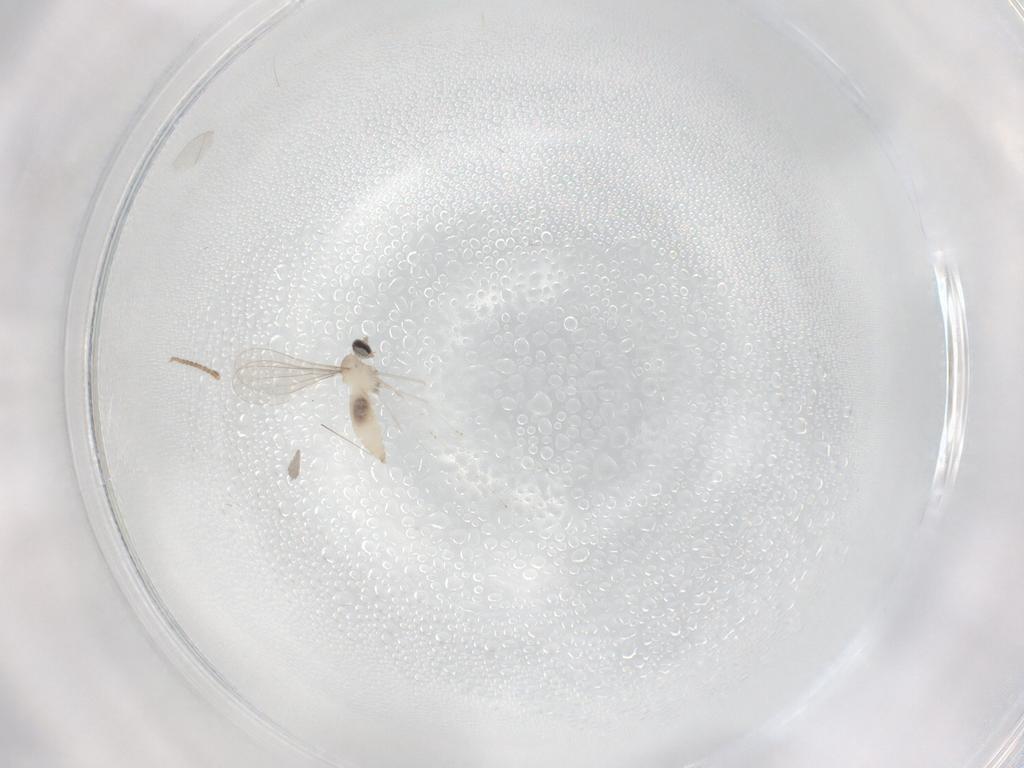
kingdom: Animalia
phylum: Arthropoda
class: Insecta
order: Diptera
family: Cecidomyiidae
